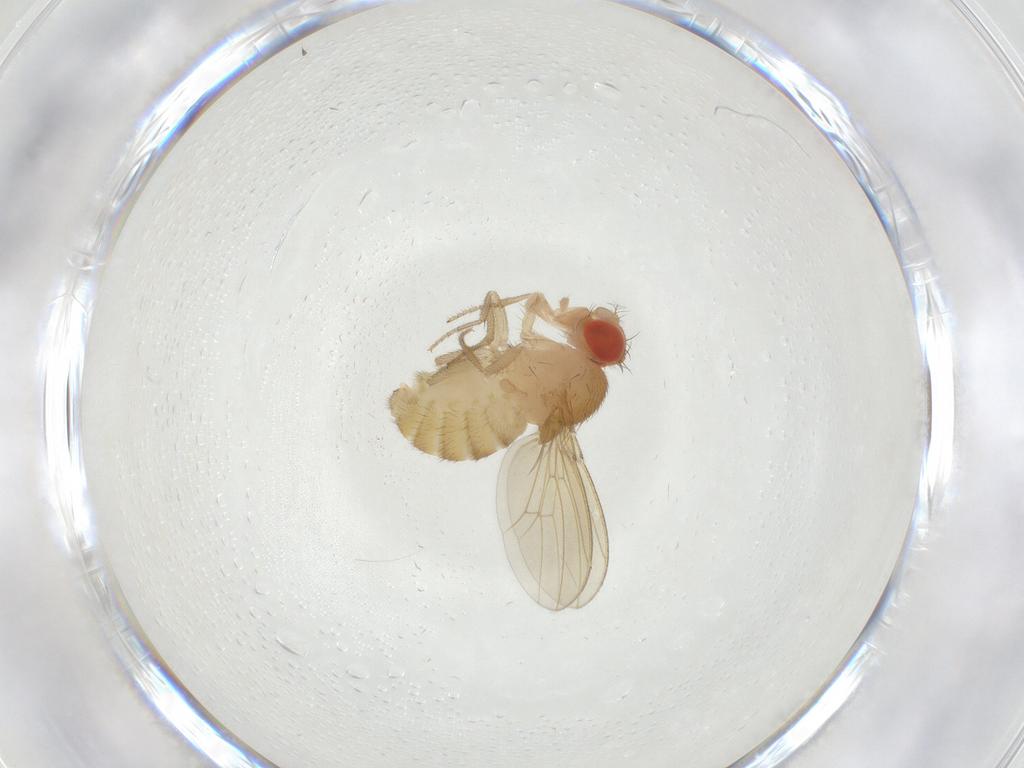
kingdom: Animalia
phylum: Arthropoda
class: Insecta
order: Diptera
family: Drosophilidae
